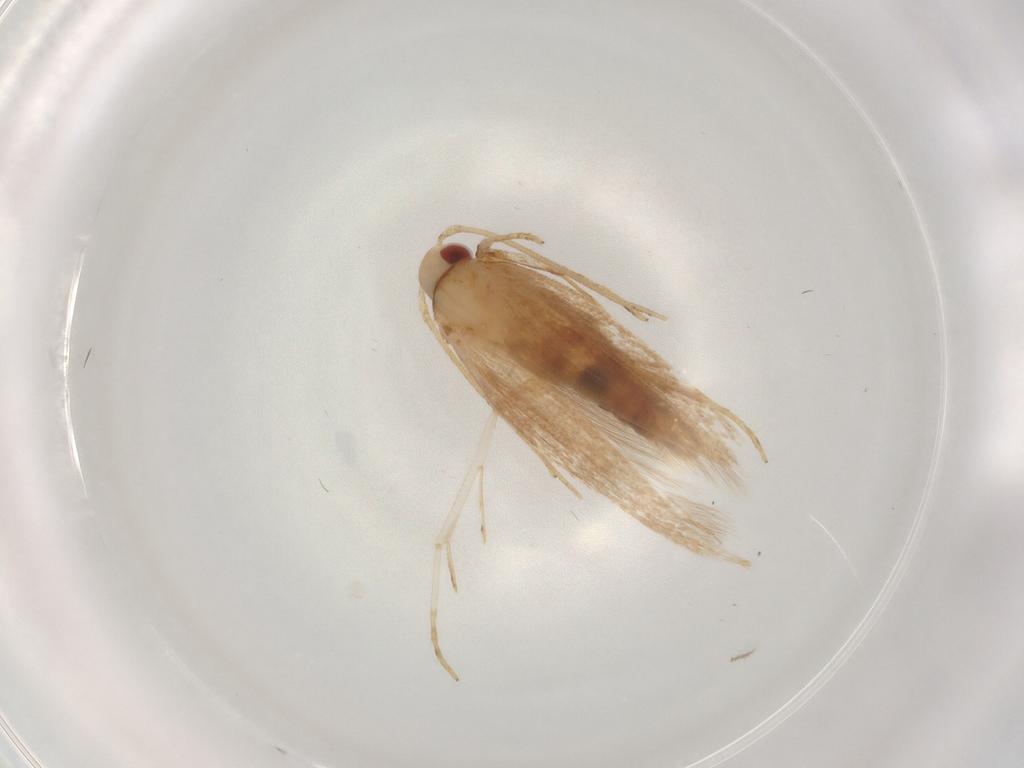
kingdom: Animalia
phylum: Arthropoda
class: Insecta
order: Lepidoptera
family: Cosmopterigidae
